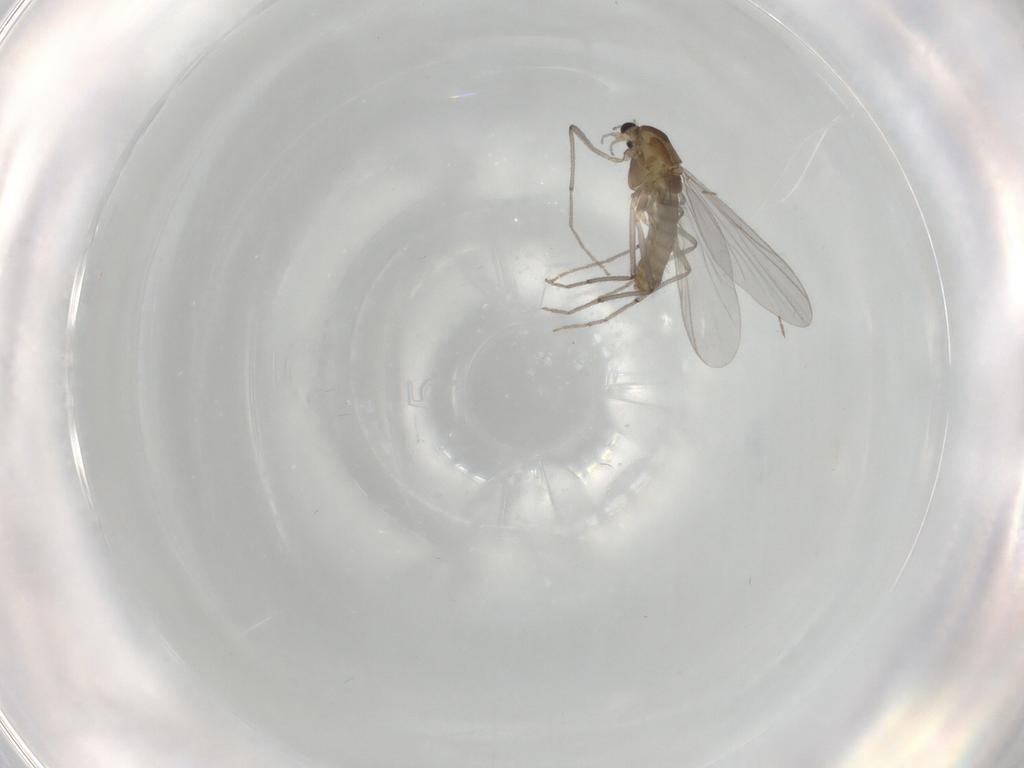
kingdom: Animalia
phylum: Arthropoda
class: Insecta
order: Diptera
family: Chironomidae
